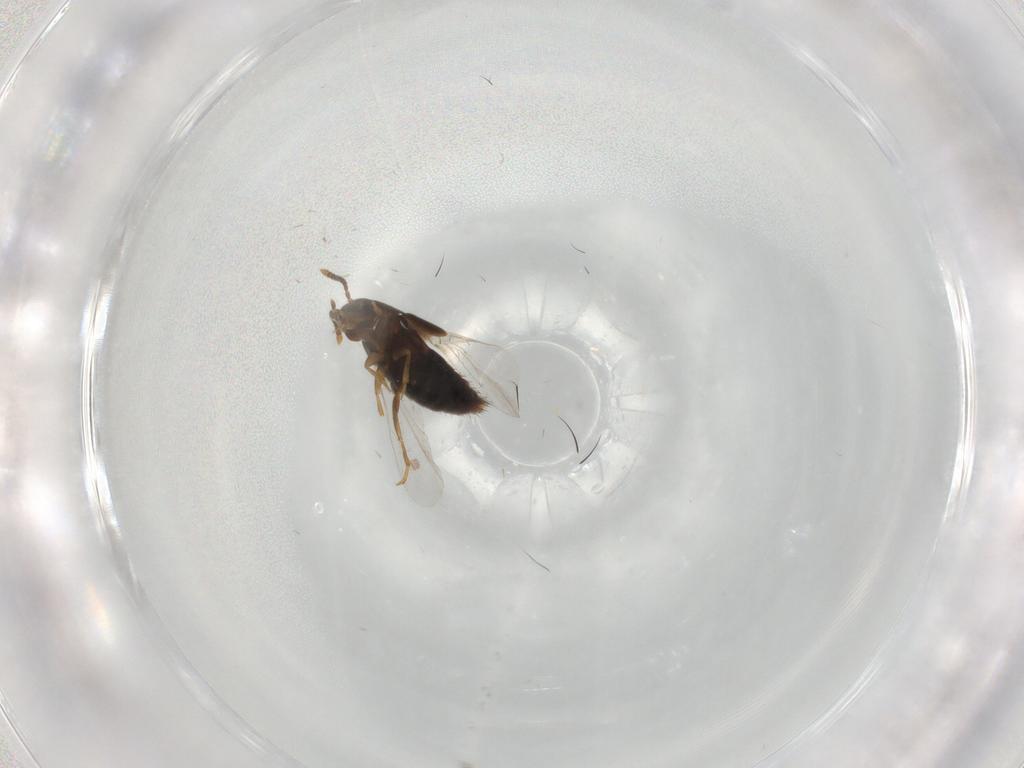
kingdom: Animalia
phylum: Arthropoda
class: Insecta
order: Coleoptera
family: Staphylinidae
